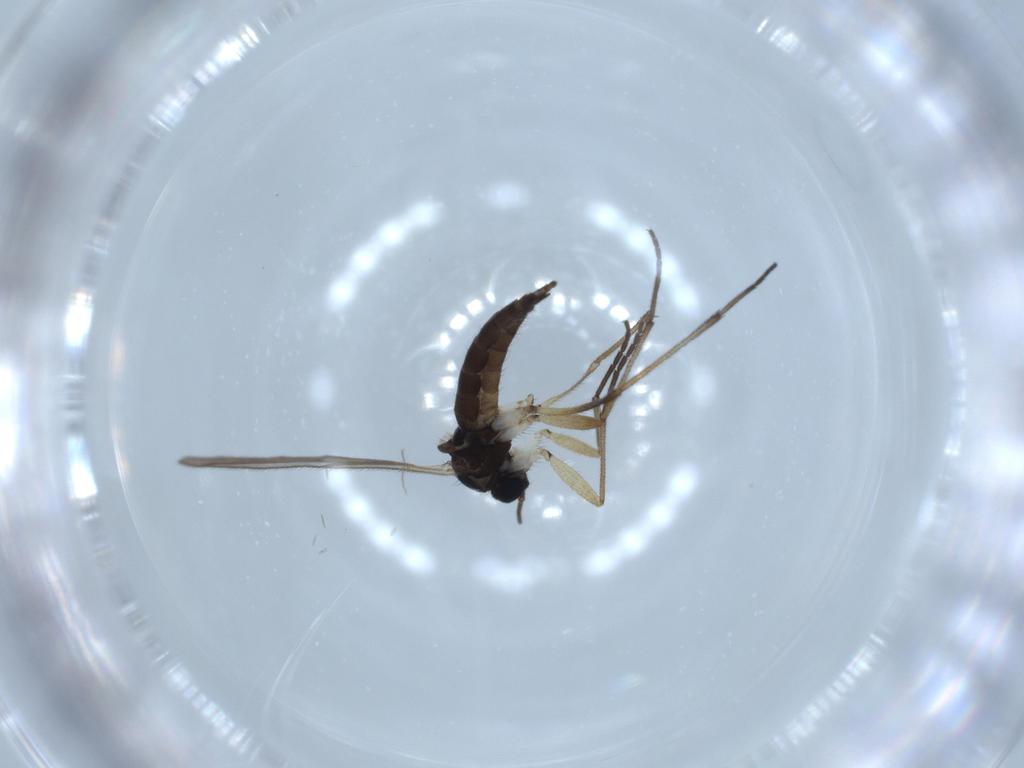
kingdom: Animalia
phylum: Arthropoda
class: Insecta
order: Diptera
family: Sciaridae
